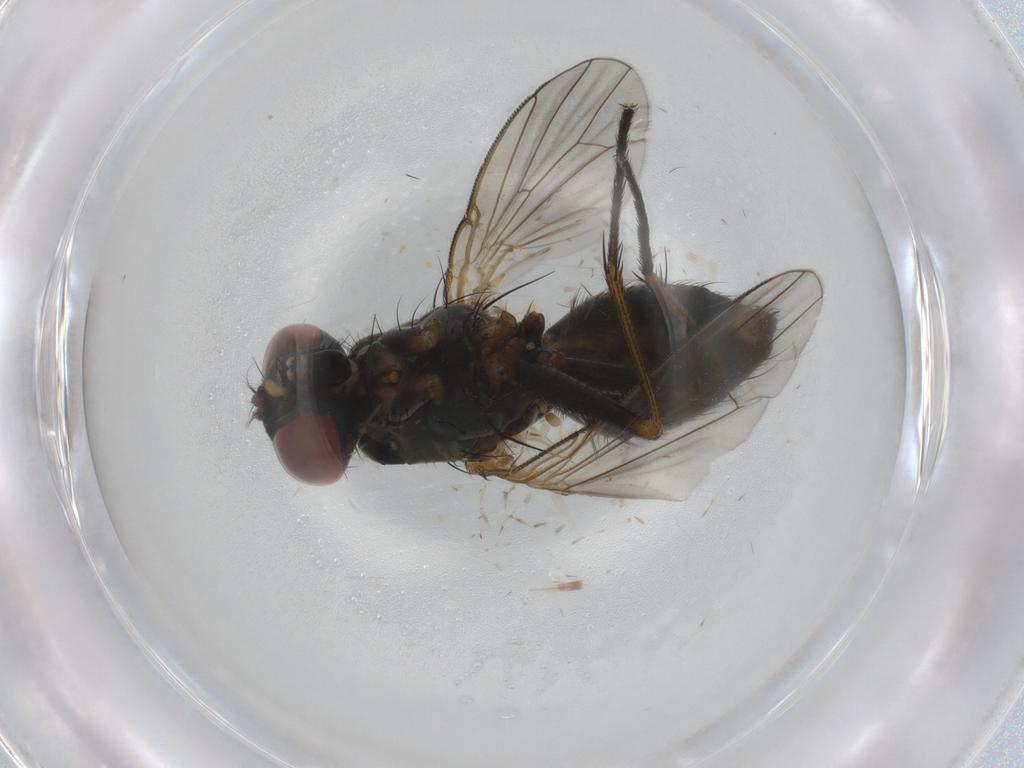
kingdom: Animalia
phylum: Arthropoda
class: Insecta
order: Diptera
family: Muscidae
